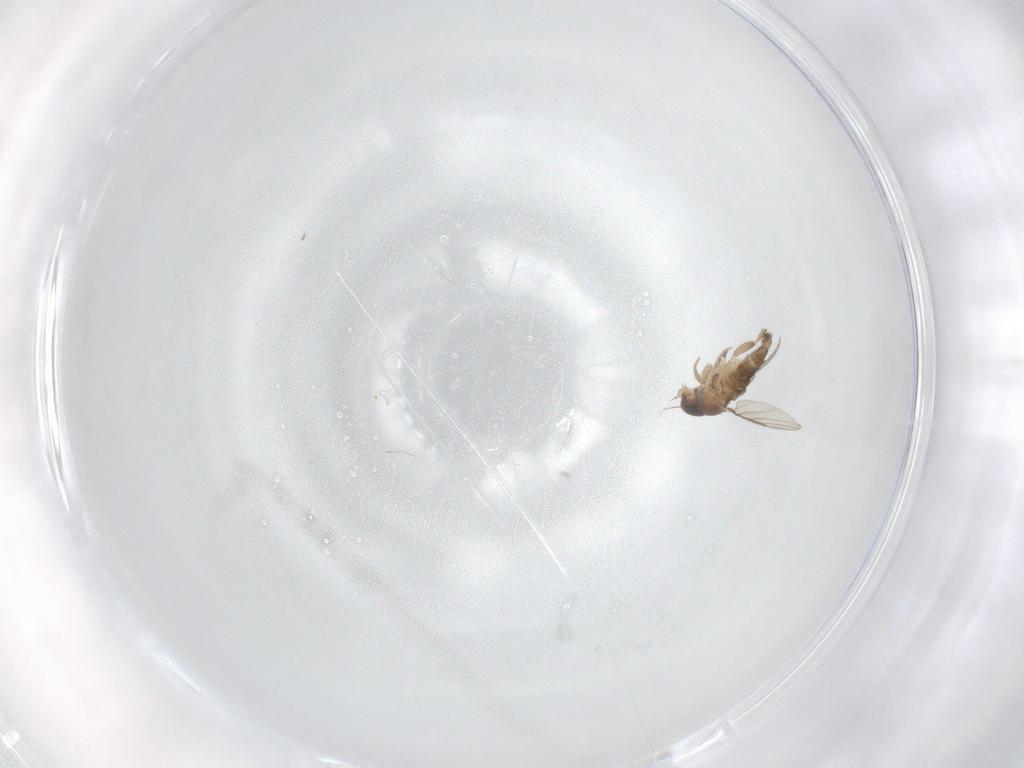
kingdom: Animalia
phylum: Arthropoda
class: Insecta
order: Diptera
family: Phoridae
